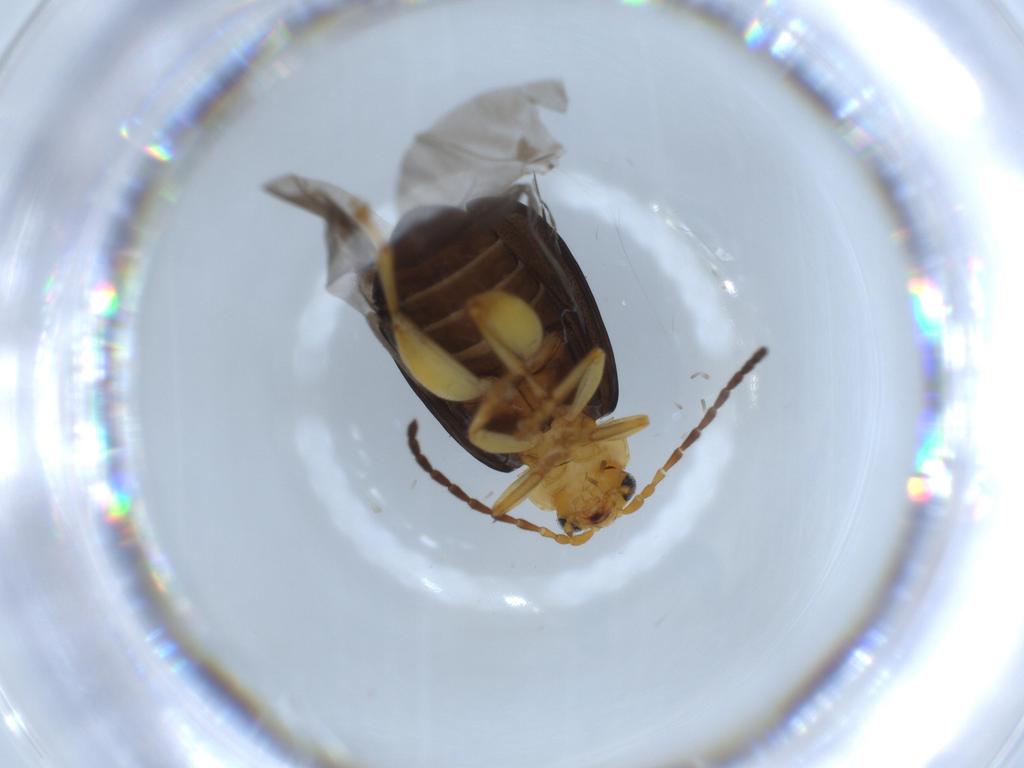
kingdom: Animalia
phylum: Arthropoda
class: Insecta
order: Coleoptera
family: Chrysomelidae
